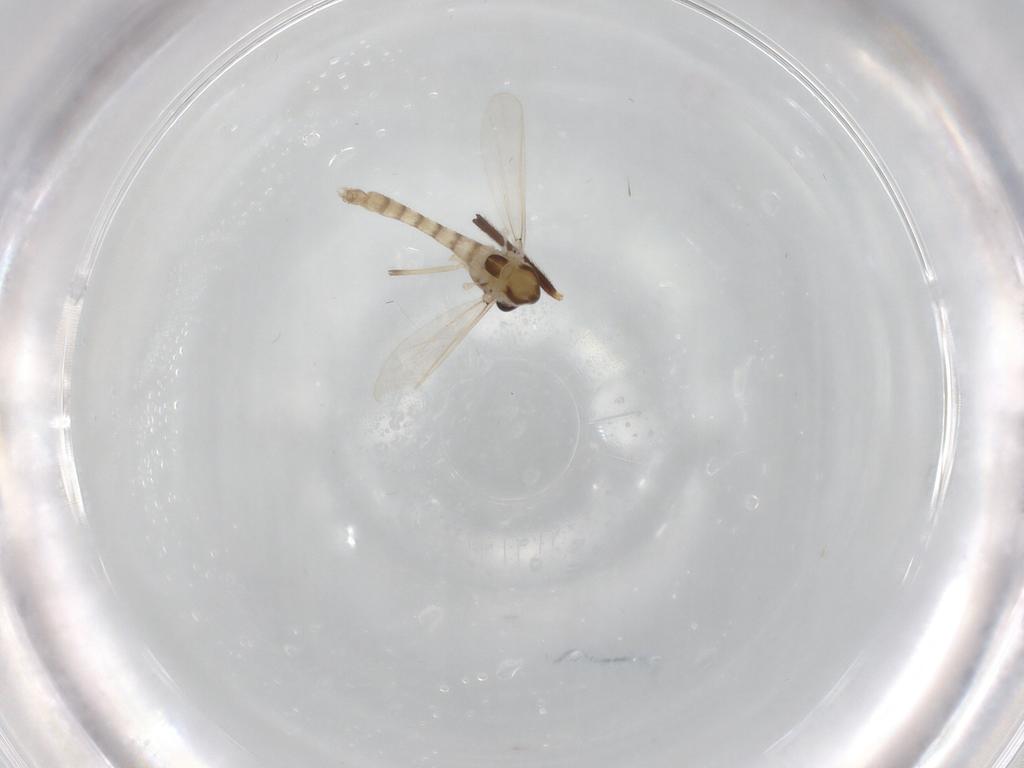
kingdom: Animalia
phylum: Arthropoda
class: Insecta
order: Diptera
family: Chironomidae
